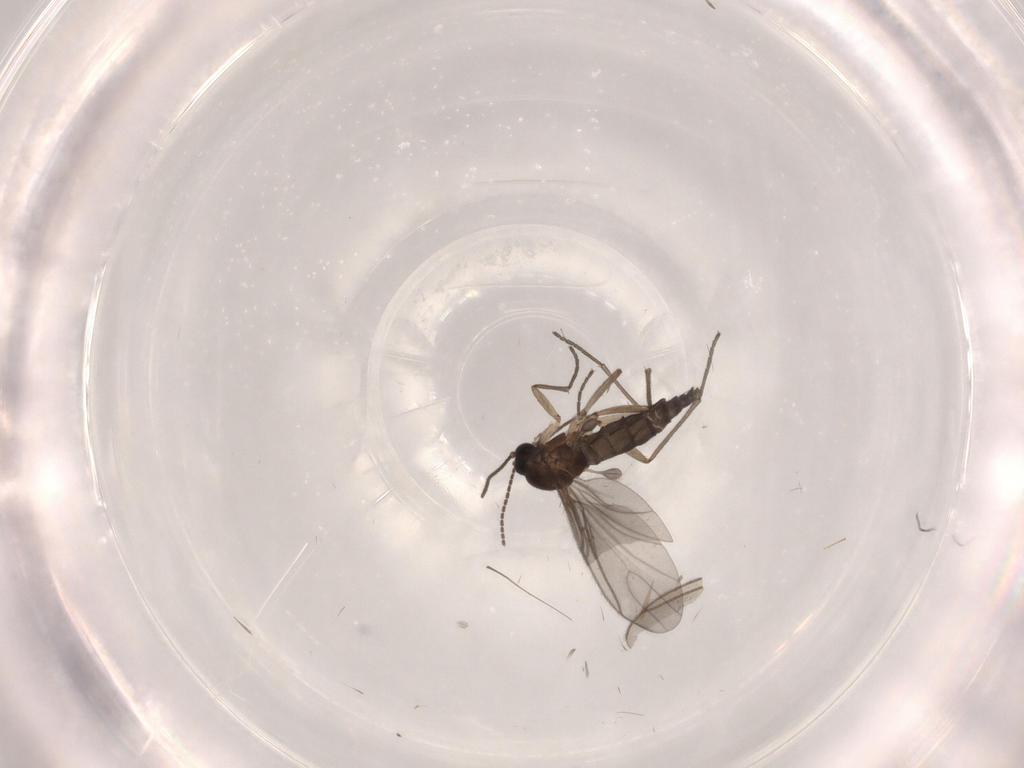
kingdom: Animalia
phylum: Arthropoda
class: Insecta
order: Diptera
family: Sciaridae
